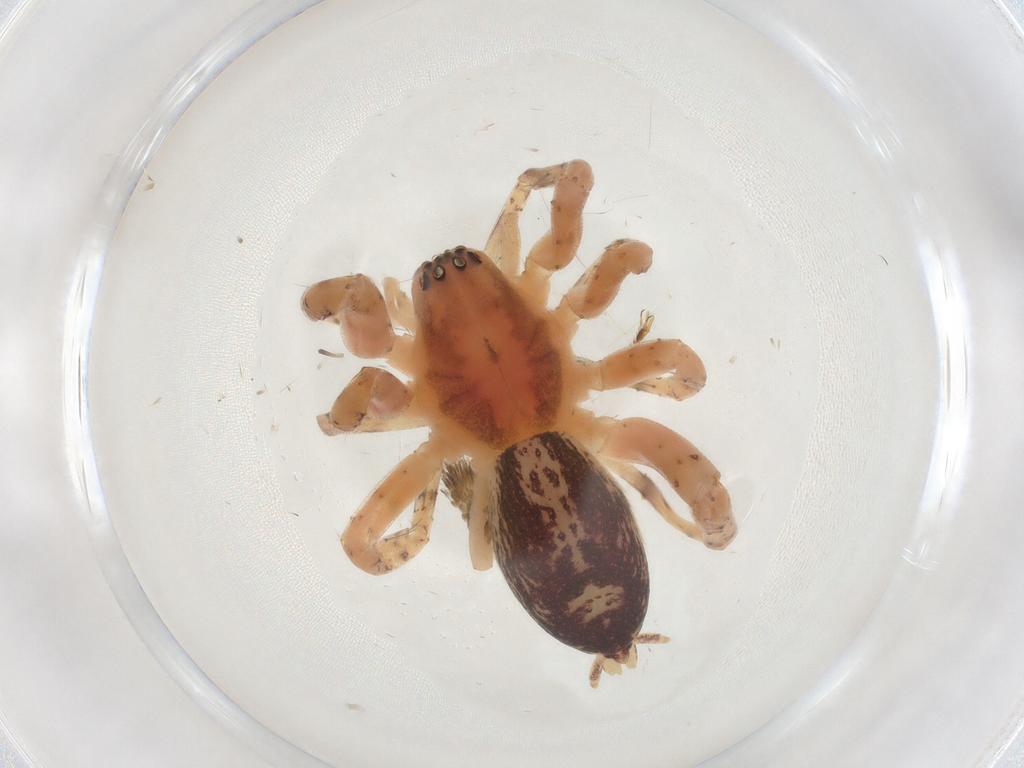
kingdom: Animalia
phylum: Arthropoda
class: Arachnida
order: Araneae
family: Anyphaenidae
